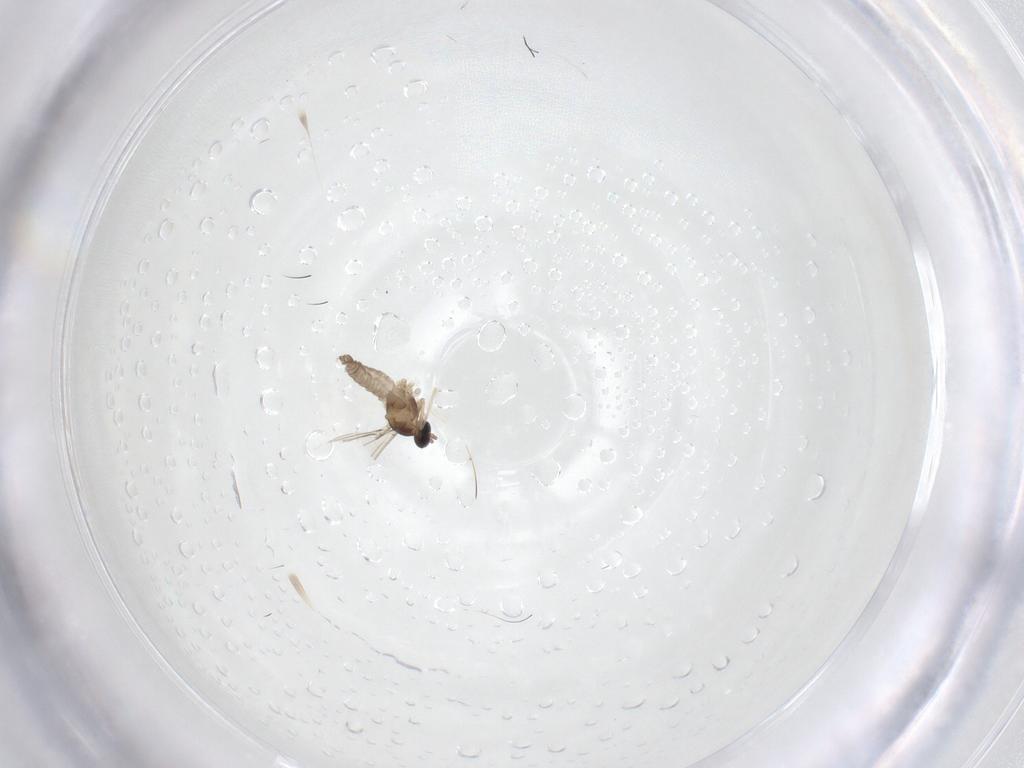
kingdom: Animalia
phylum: Arthropoda
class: Insecta
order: Diptera
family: Cecidomyiidae
